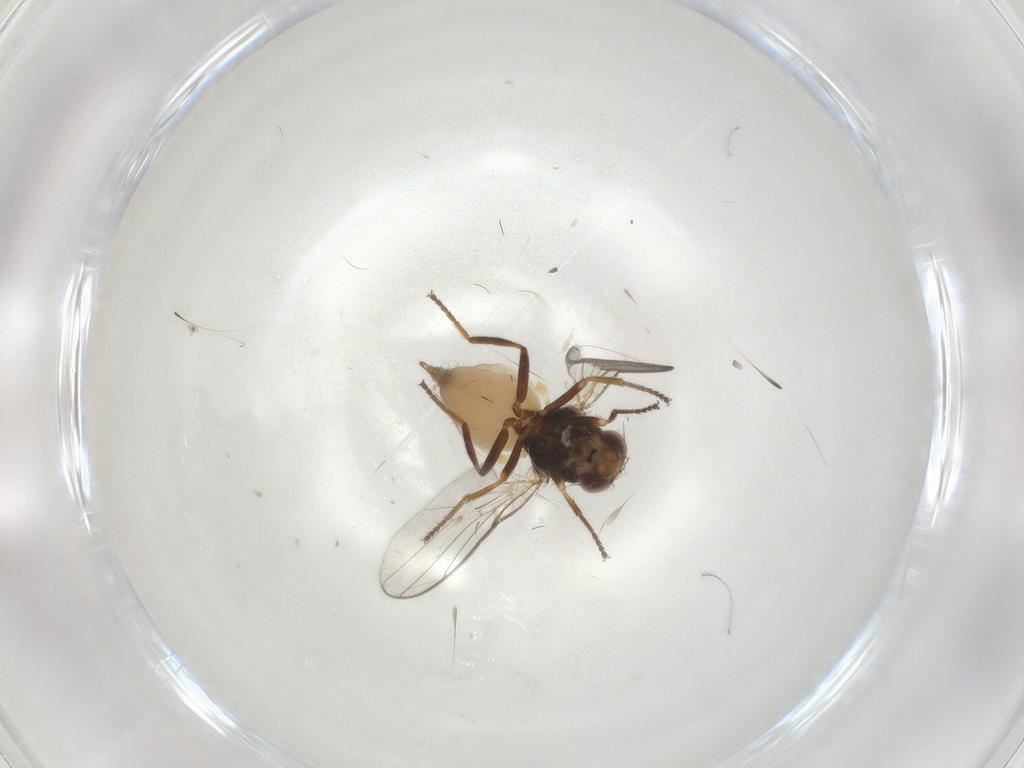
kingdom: Animalia
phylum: Arthropoda
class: Insecta
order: Diptera
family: Chloropidae
